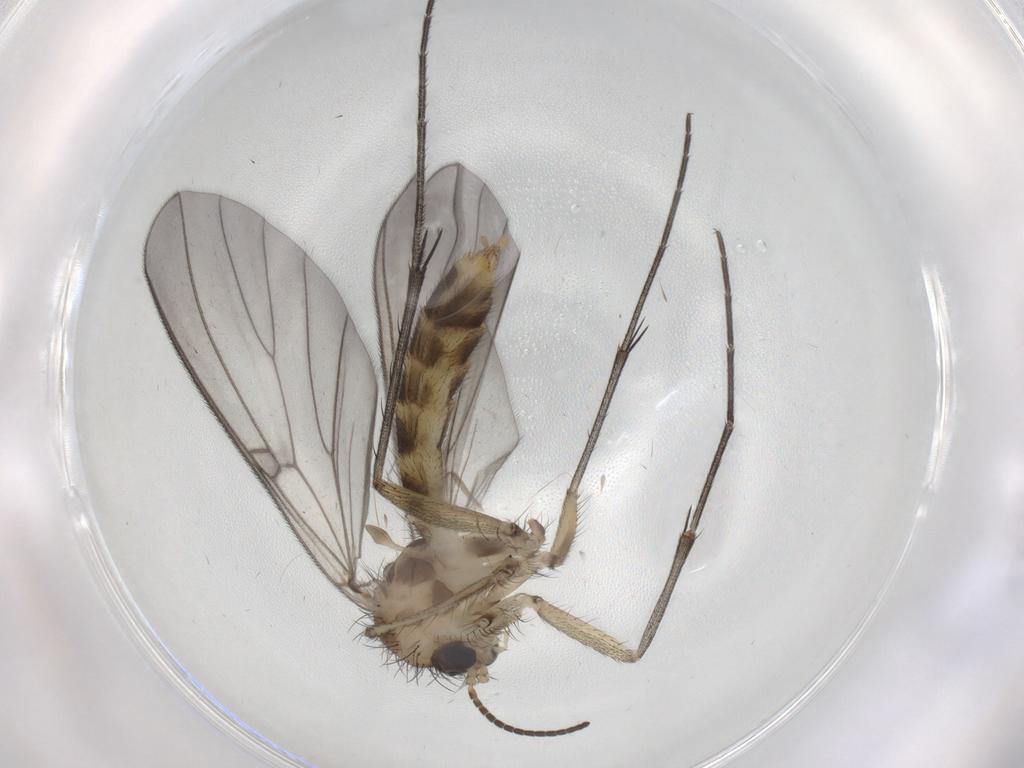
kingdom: Animalia
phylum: Arthropoda
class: Insecta
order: Diptera
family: Mycetophilidae
